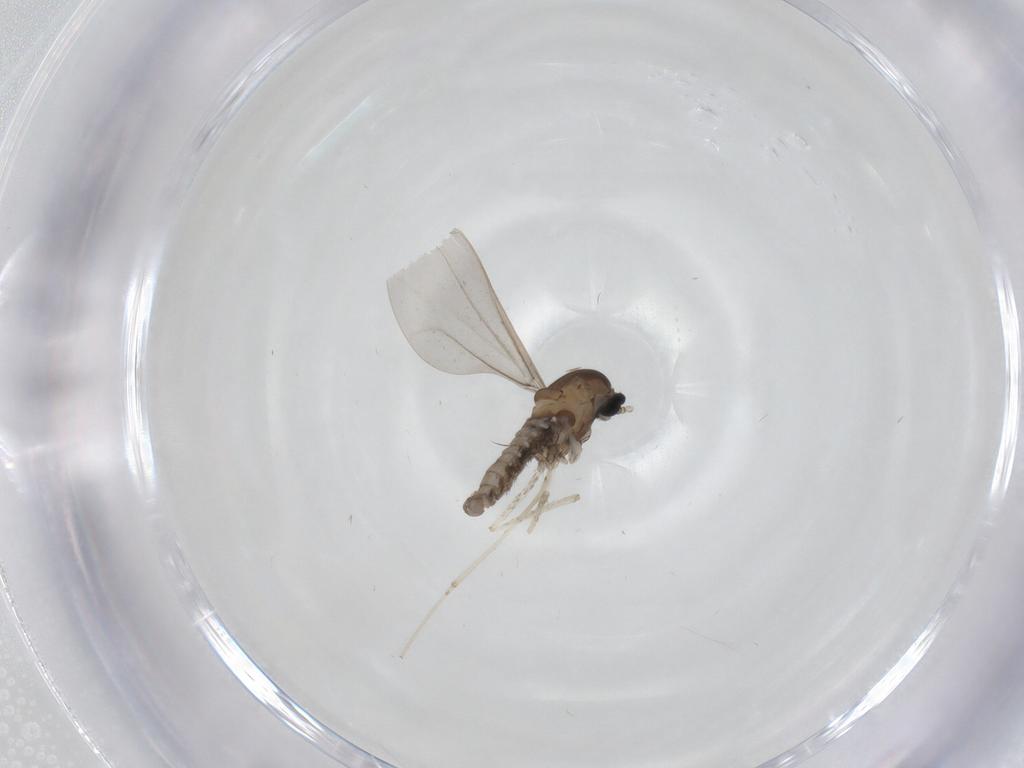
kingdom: Animalia
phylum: Arthropoda
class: Insecta
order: Diptera
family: Cecidomyiidae
